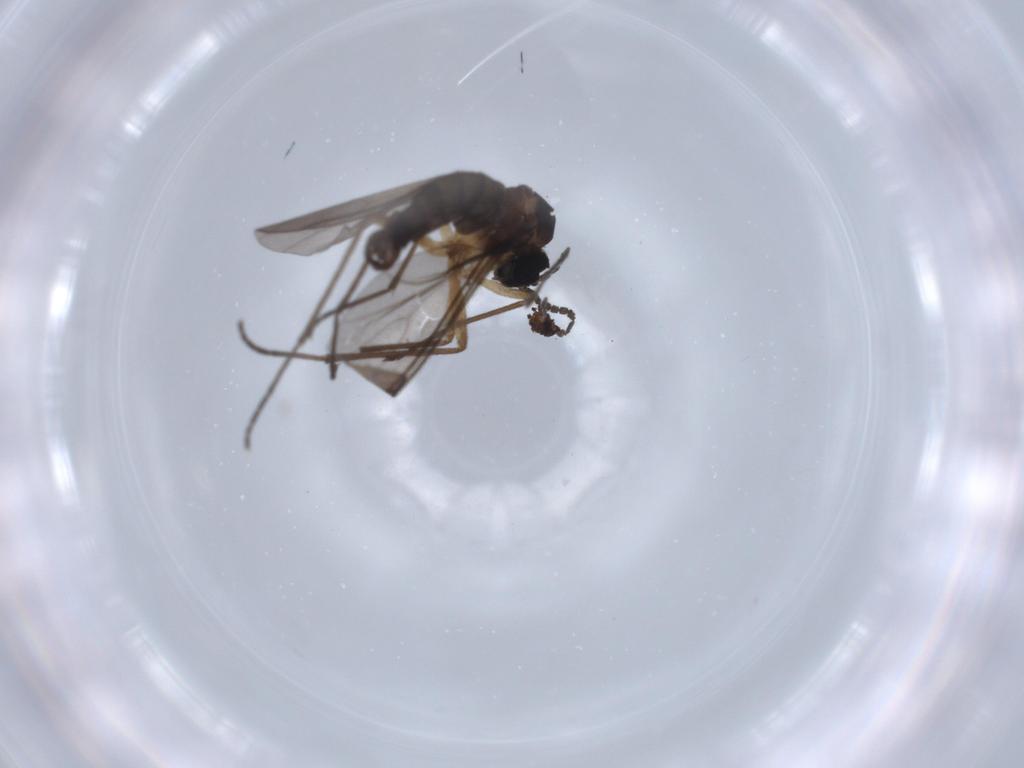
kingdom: Animalia
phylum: Arthropoda
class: Insecta
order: Diptera
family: Sciaridae
